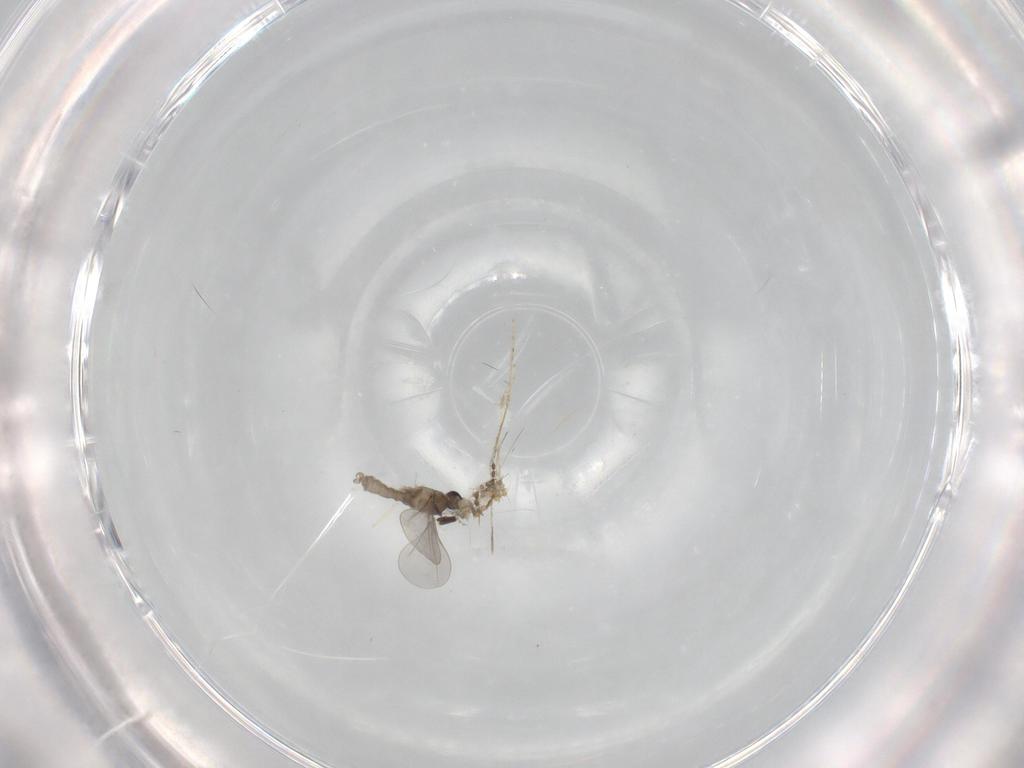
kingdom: Animalia
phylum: Arthropoda
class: Insecta
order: Diptera
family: Cecidomyiidae
